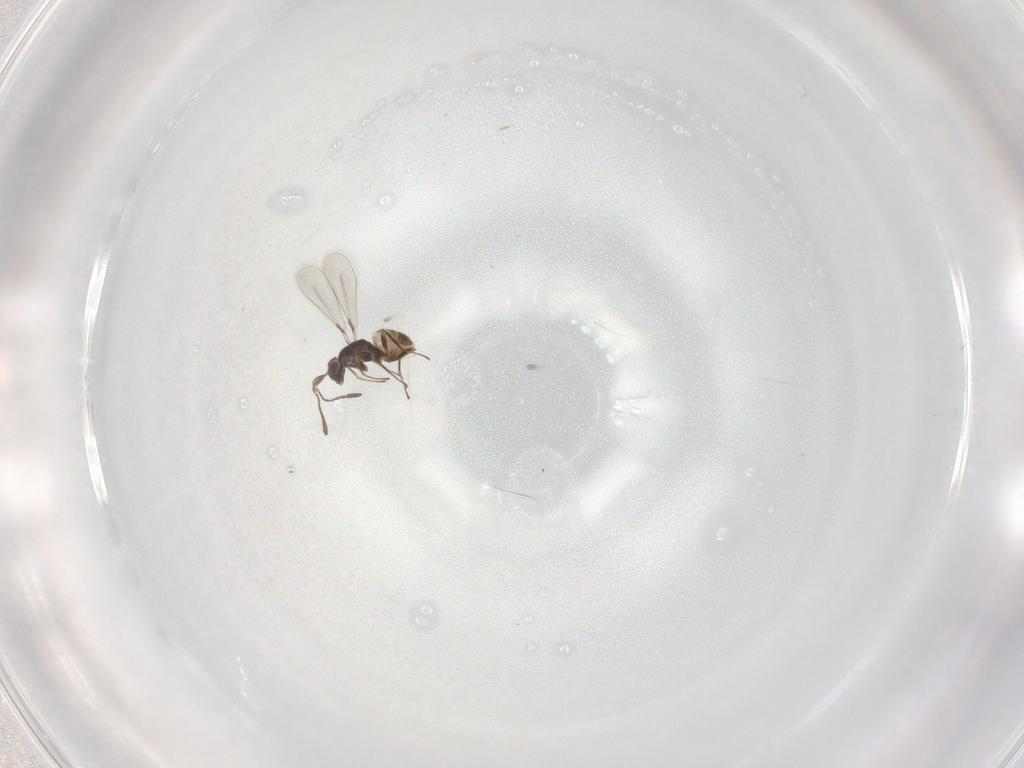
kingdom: Animalia
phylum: Arthropoda
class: Insecta
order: Hymenoptera
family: Mymaridae
